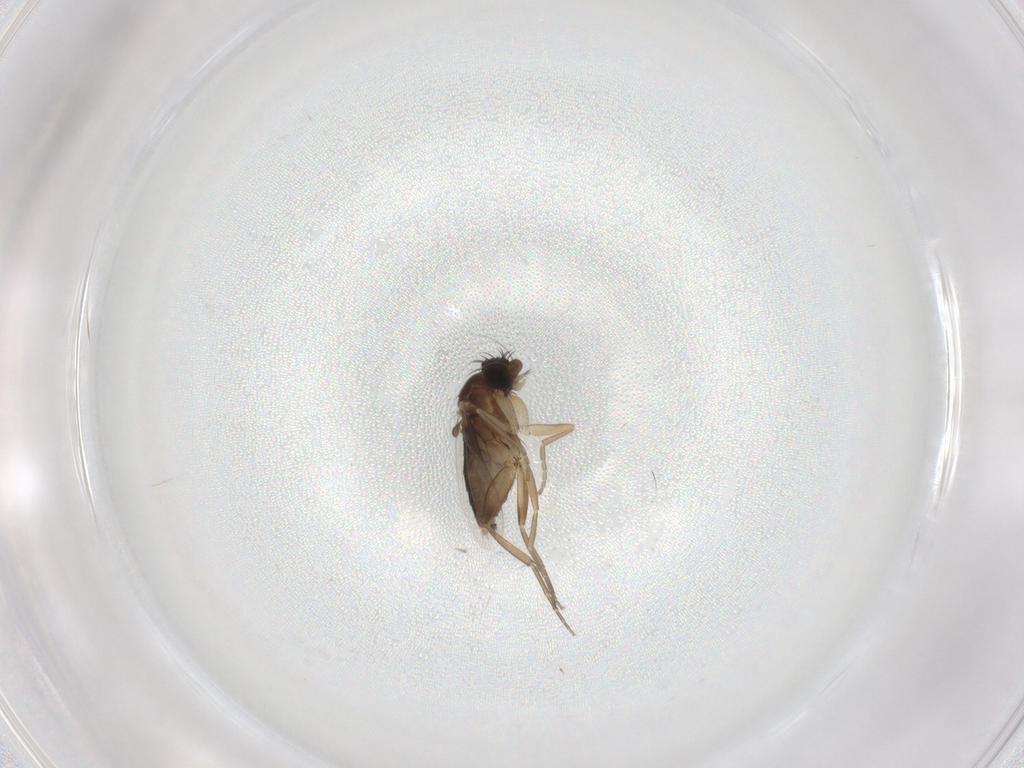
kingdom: Animalia
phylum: Arthropoda
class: Insecta
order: Diptera
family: Phoridae
